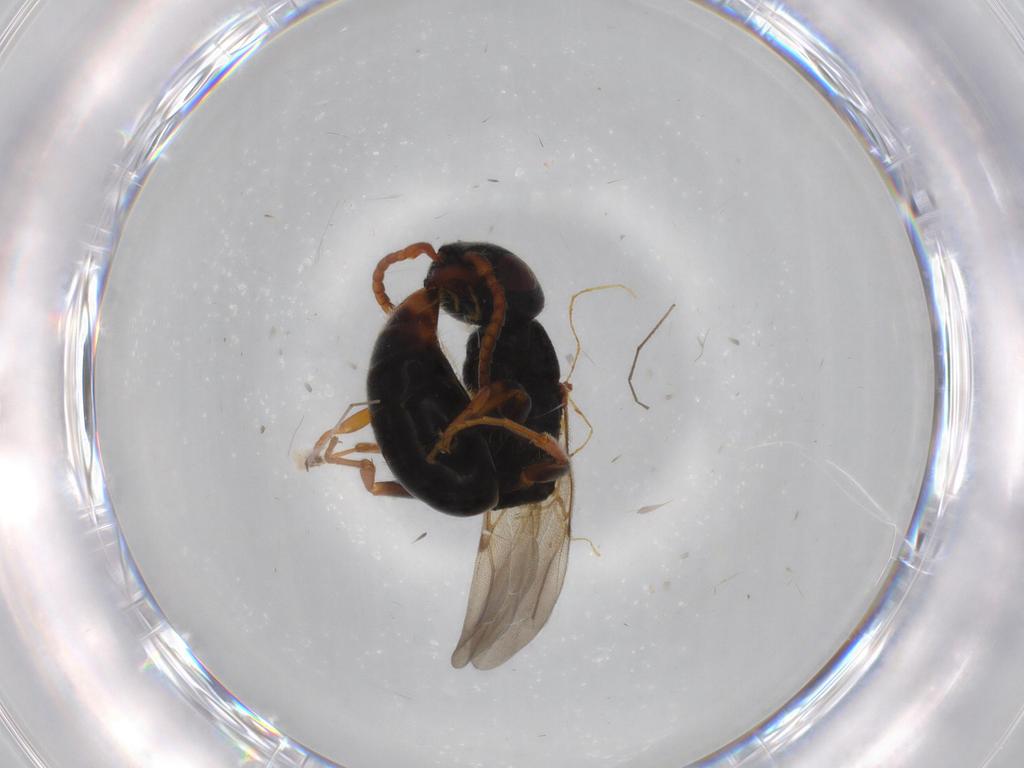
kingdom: Animalia
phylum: Arthropoda
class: Insecta
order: Hymenoptera
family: Bethylidae
